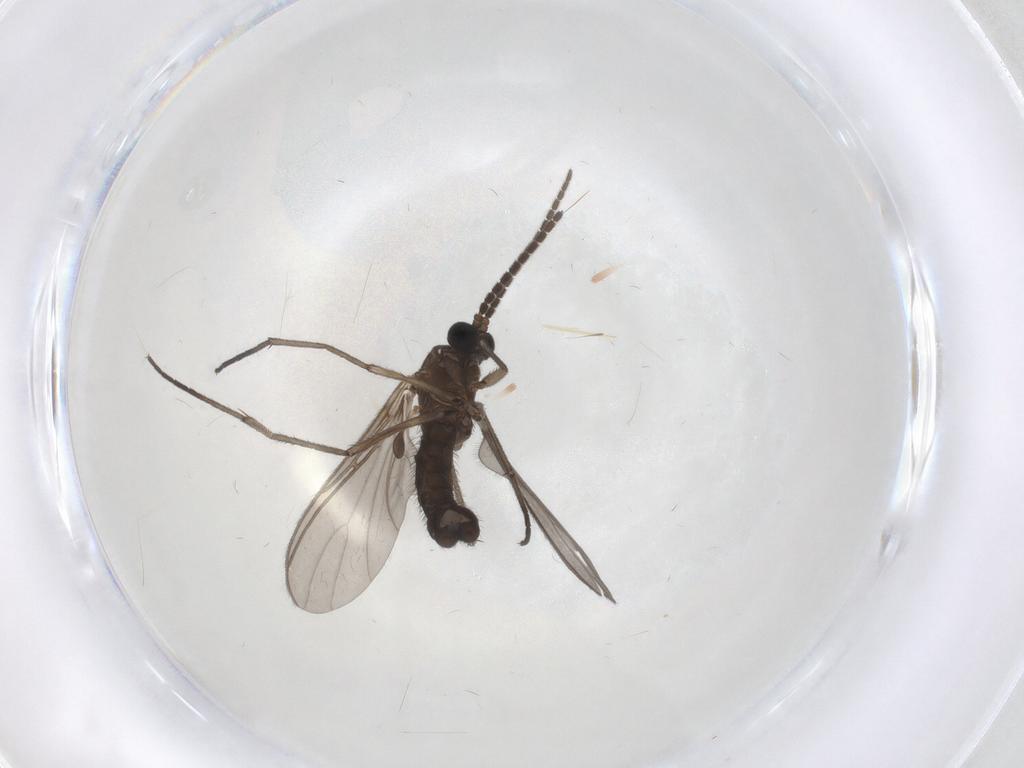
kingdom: Animalia
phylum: Arthropoda
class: Insecta
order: Diptera
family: Sciaridae
